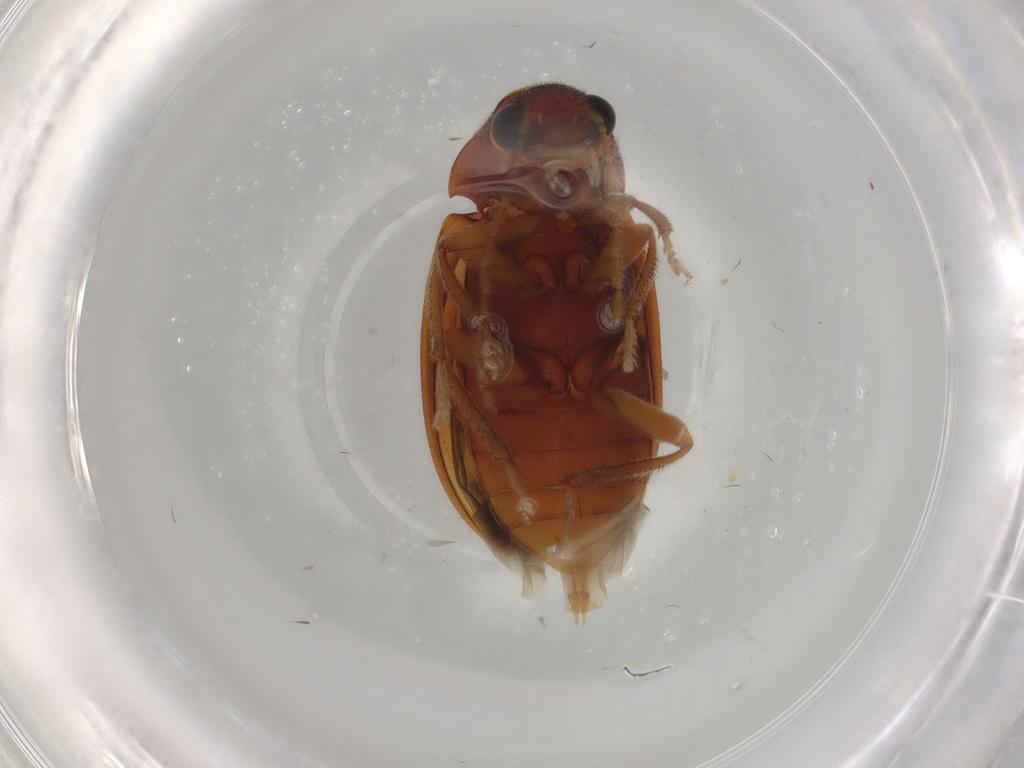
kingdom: Animalia
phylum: Arthropoda
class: Insecta
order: Coleoptera
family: Ptilodactylidae
